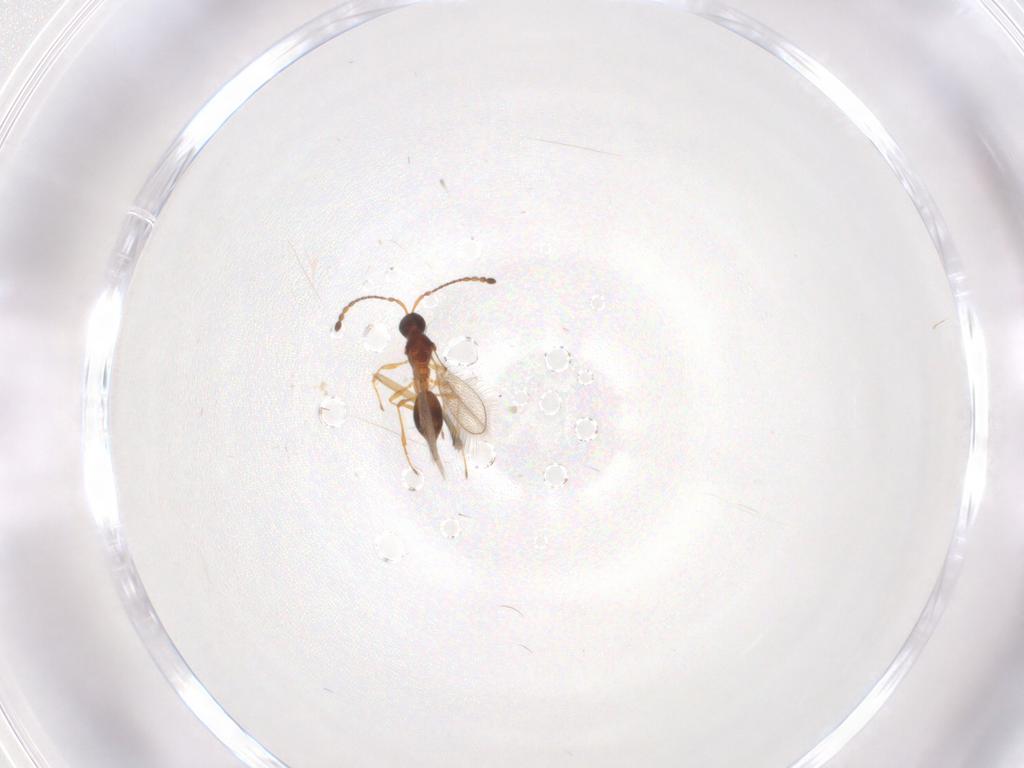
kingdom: Animalia
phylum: Arthropoda
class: Insecta
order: Hymenoptera
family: Diapriidae
